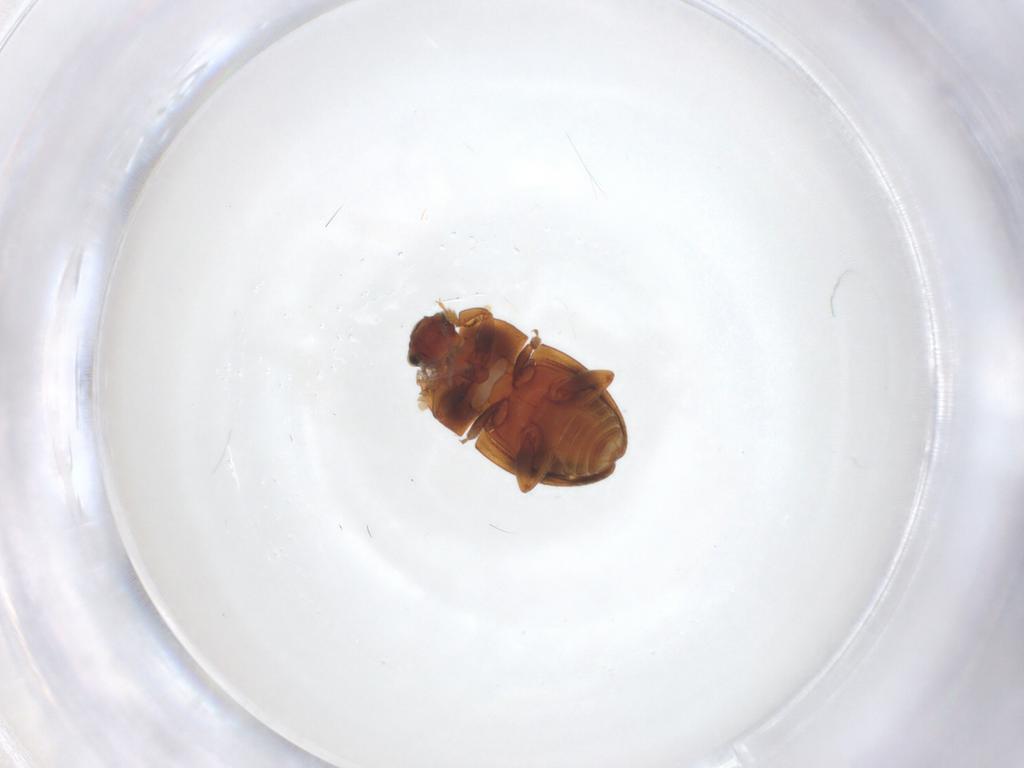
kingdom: Animalia
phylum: Arthropoda
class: Insecta
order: Coleoptera
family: Nitidulidae
